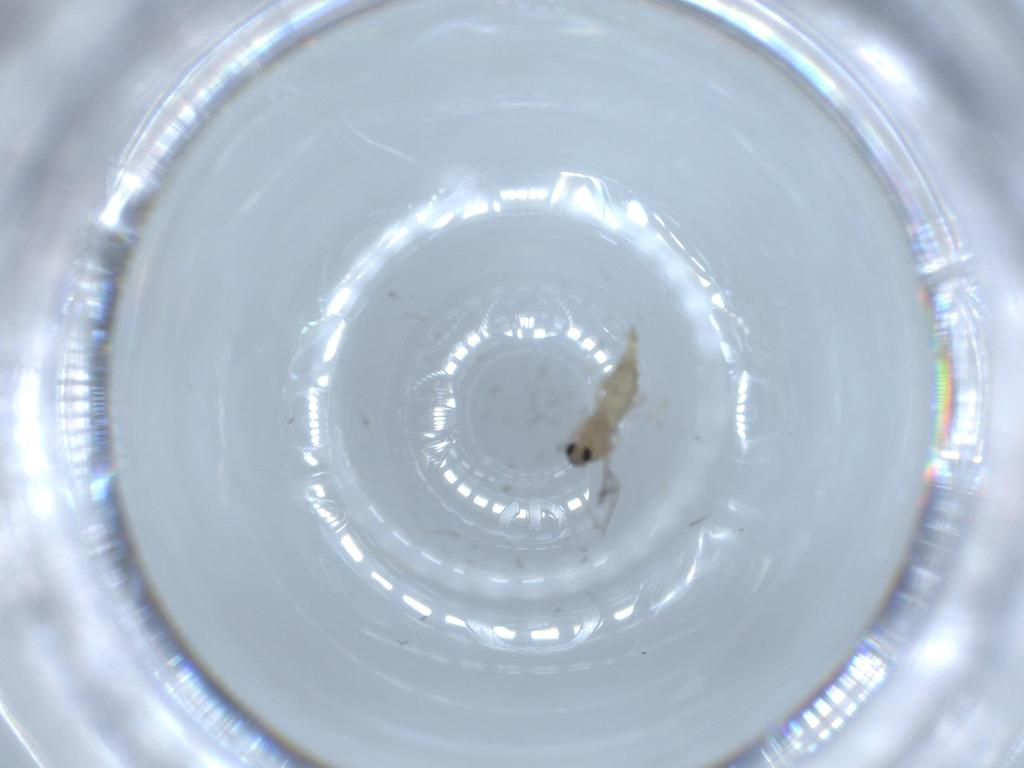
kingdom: Animalia
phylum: Arthropoda
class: Insecta
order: Diptera
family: Cecidomyiidae
